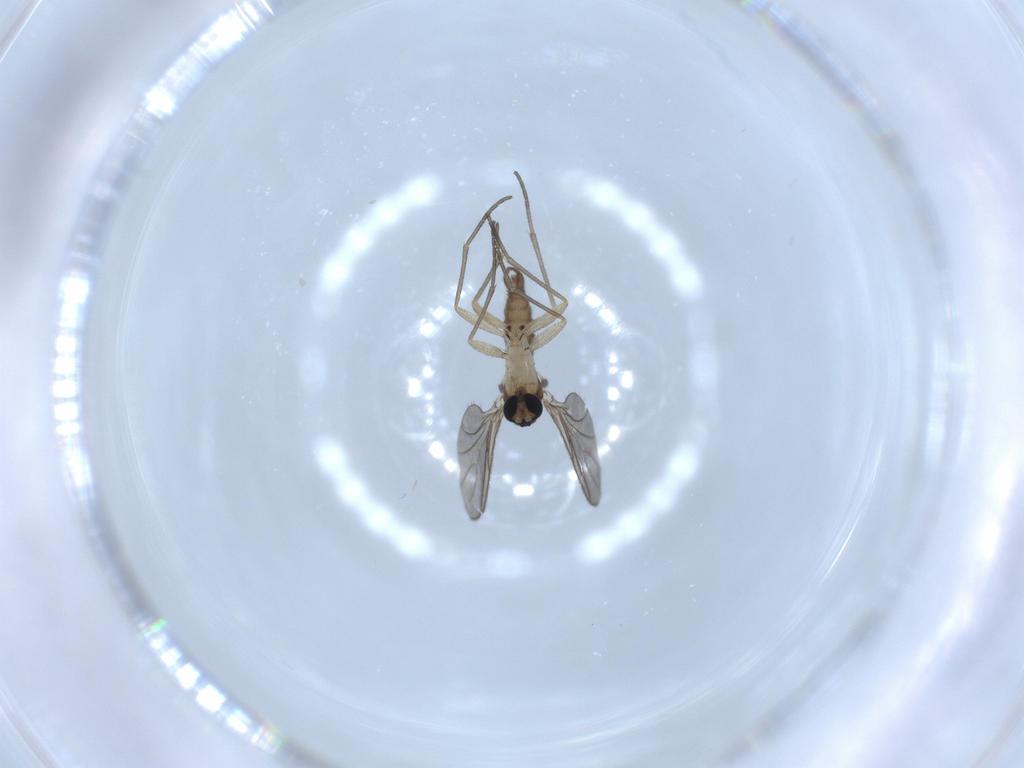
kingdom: Animalia
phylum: Arthropoda
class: Insecta
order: Diptera
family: Sciaridae
